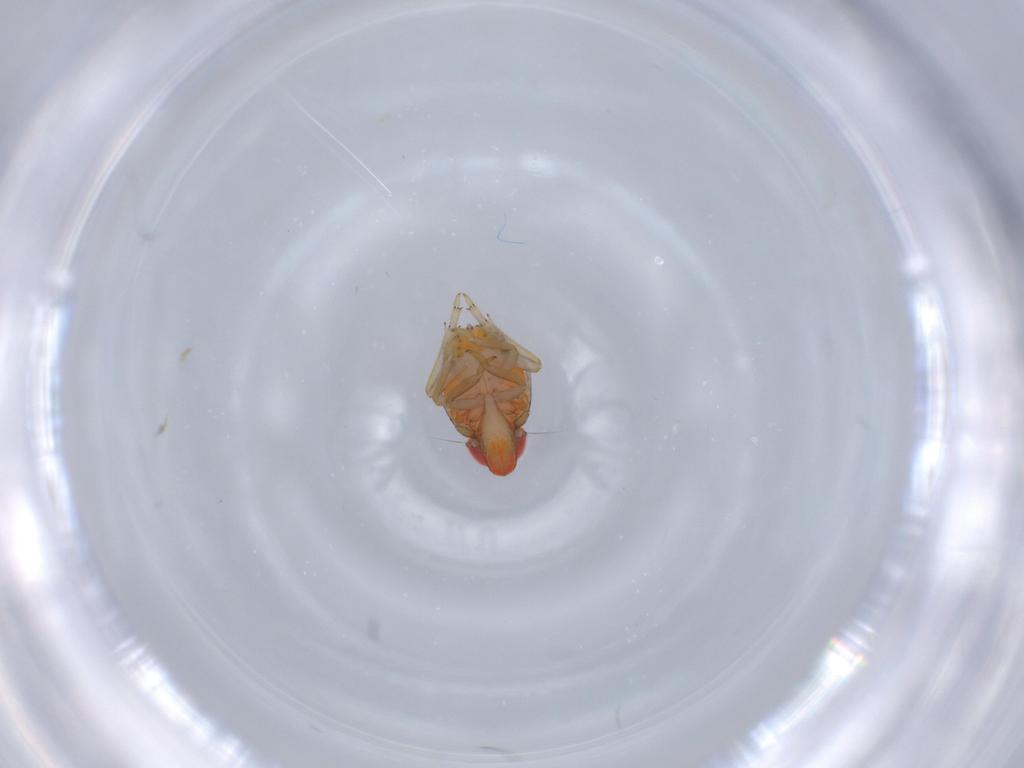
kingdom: Animalia
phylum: Arthropoda
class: Insecta
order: Hemiptera
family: Fulgoroidea_incertae_sedis
